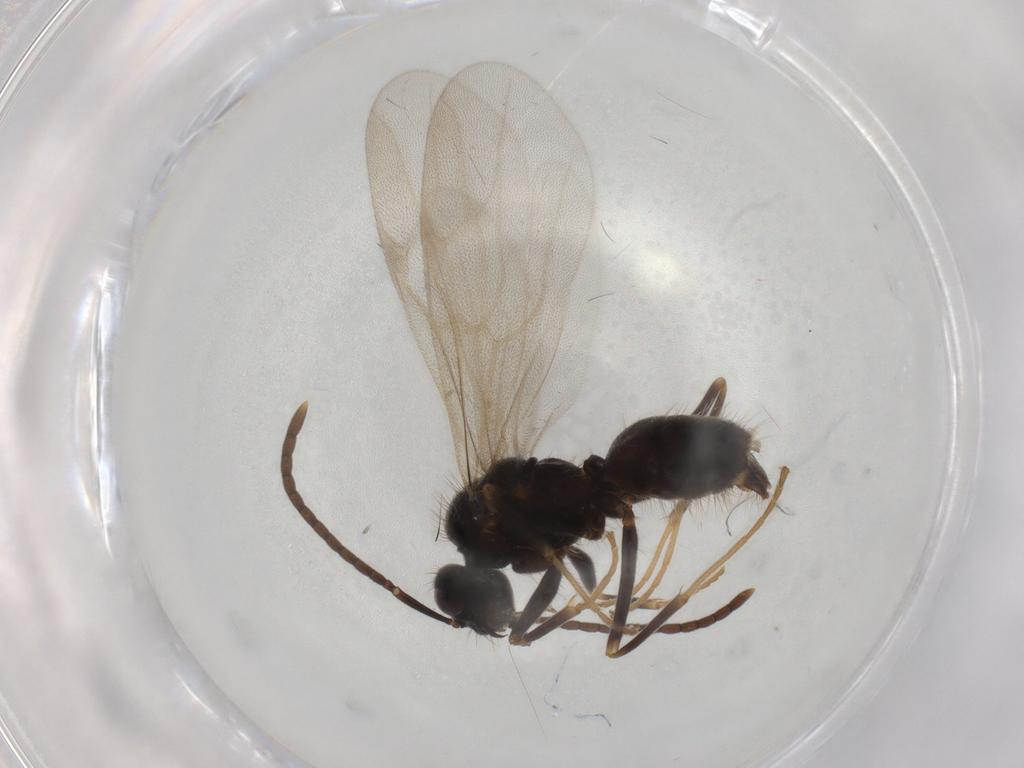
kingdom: Animalia
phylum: Arthropoda
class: Insecta
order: Hymenoptera
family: Formicidae
